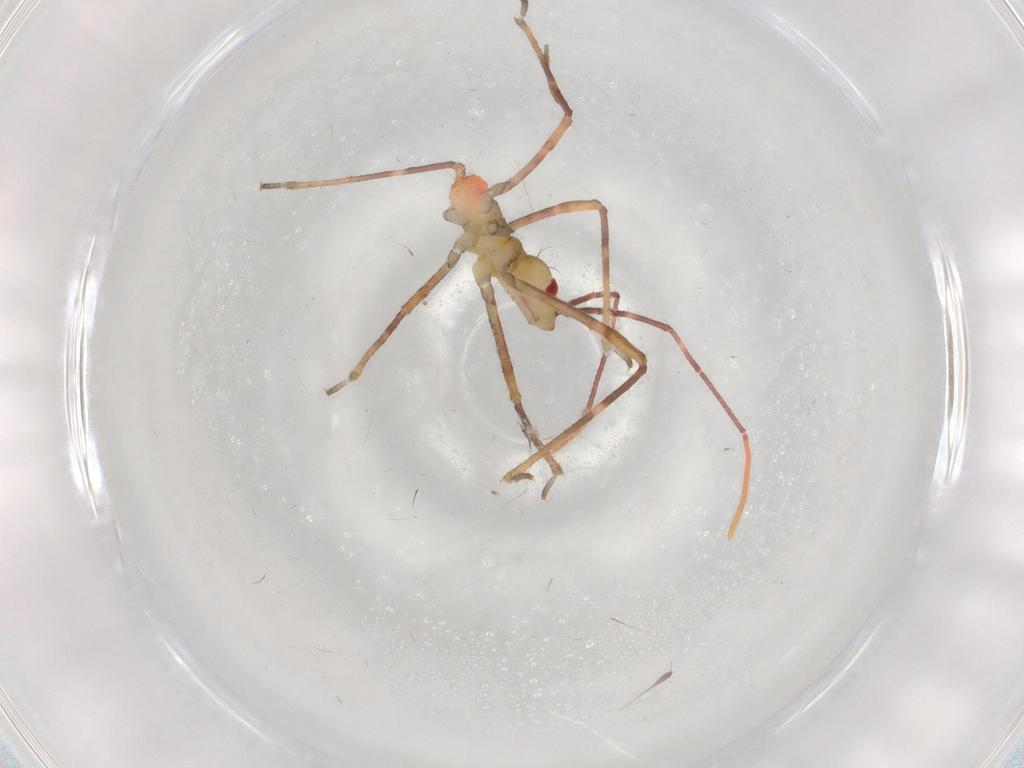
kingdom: Animalia
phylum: Arthropoda
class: Insecta
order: Hemiptera
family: Reduviidae
